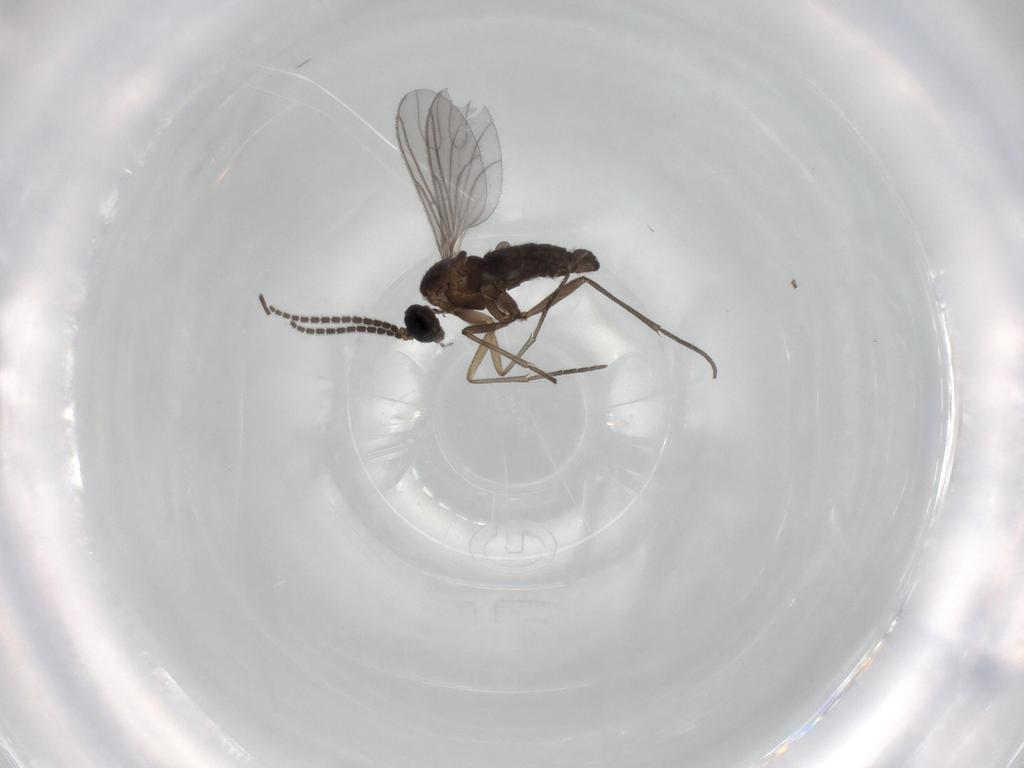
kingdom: Animalia
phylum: Arthropoda
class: Insecta
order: Diptera
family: Sciaridae
